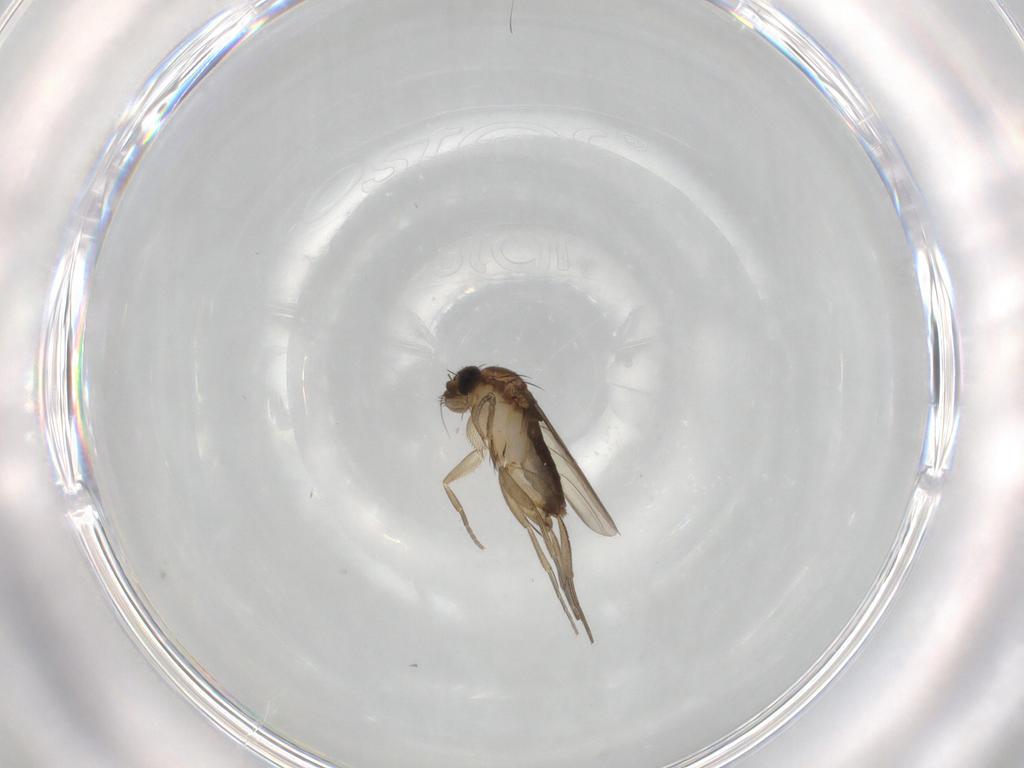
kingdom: Animalia
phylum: Arthropoda
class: Insecta
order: Diptera
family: Phoridae
